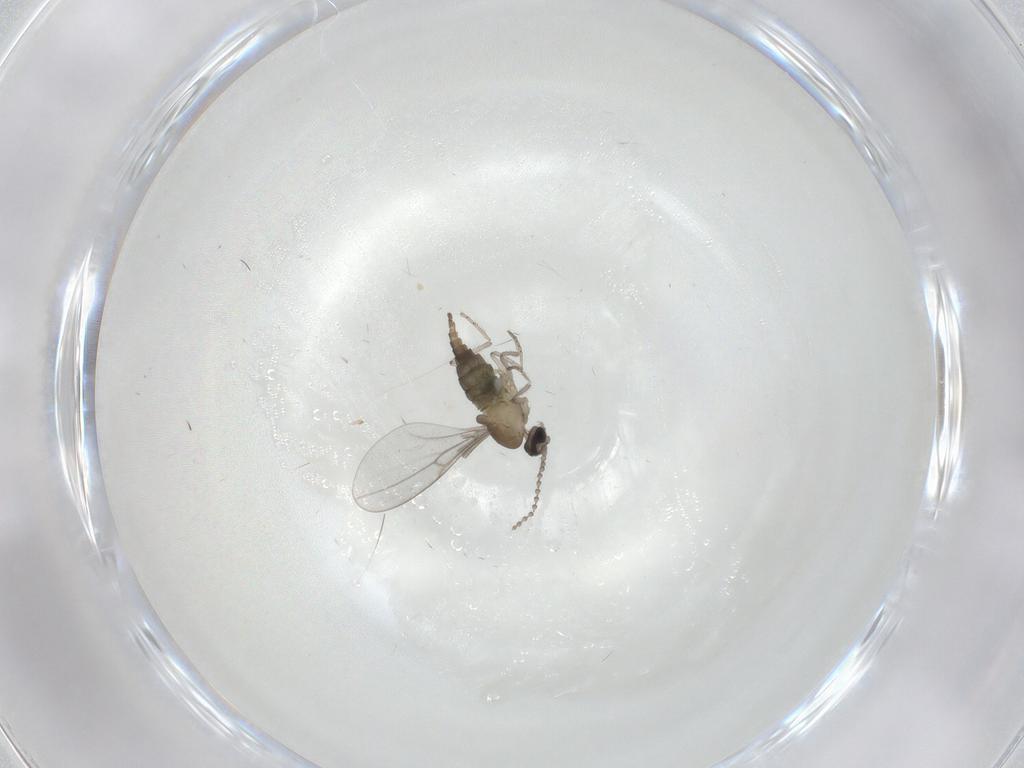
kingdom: Animalia
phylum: Arthropoda
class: Insecta
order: Diptera
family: Cecidomyiidae
